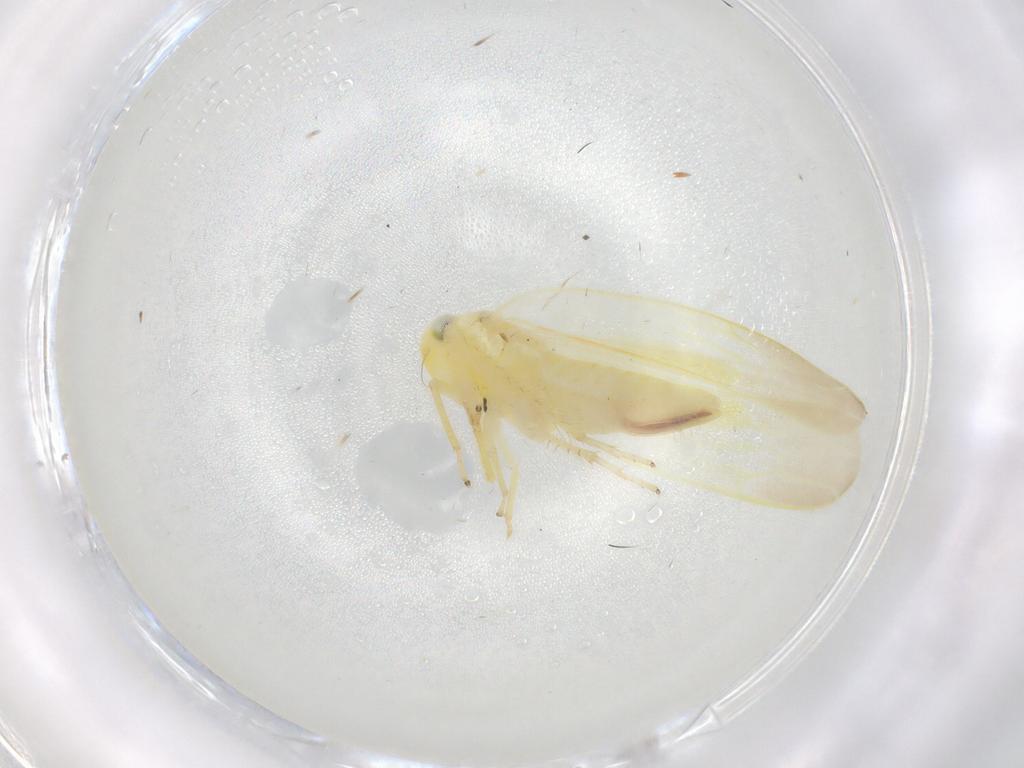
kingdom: Animalia
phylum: Arthropoda
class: Insecta
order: Hemiptera
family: Cicadellidae
